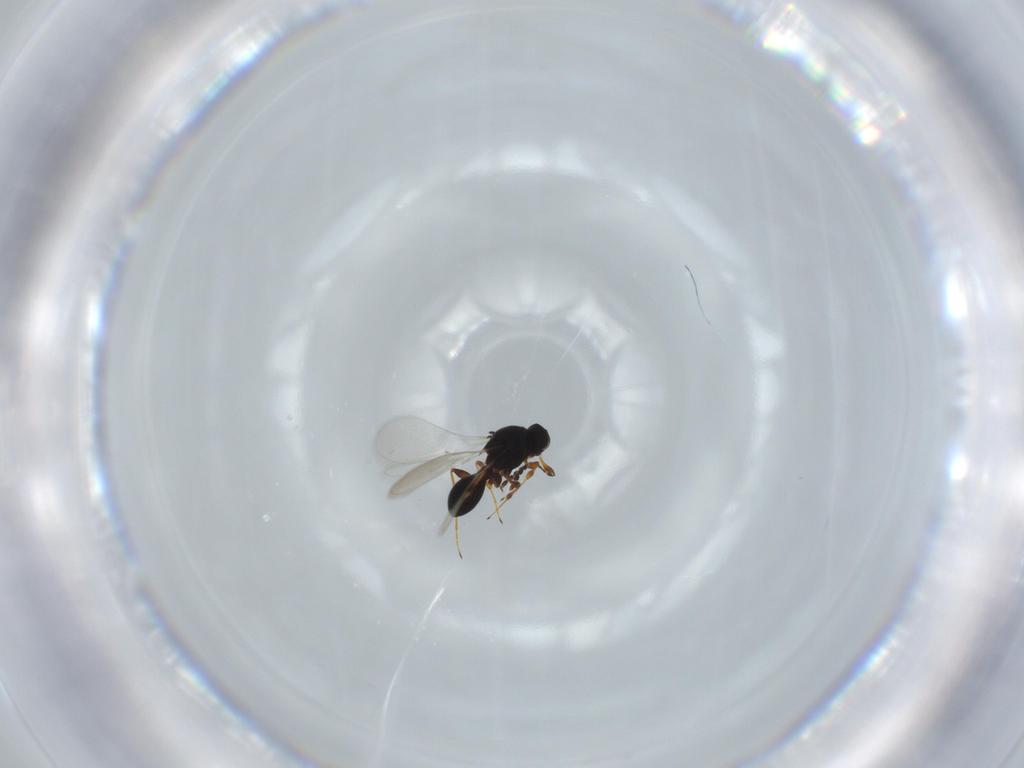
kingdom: Animalia
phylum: Arthropoda
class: Insecta
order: Hymenoptera
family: Platygastridae
